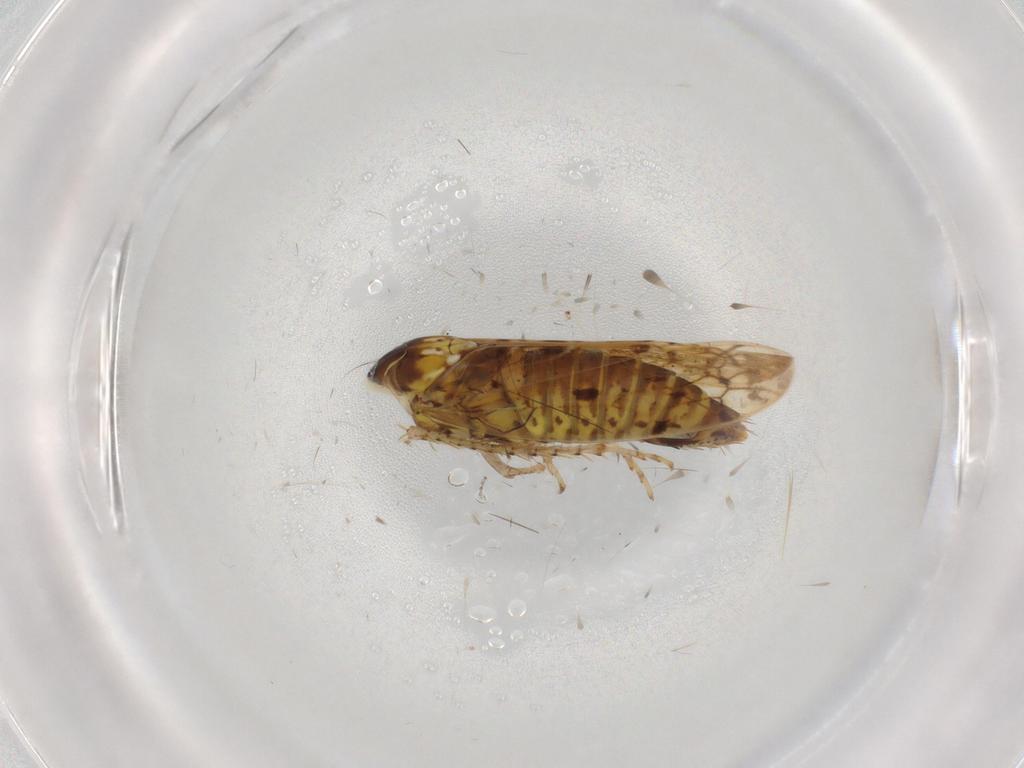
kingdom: Animalia
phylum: Arthropoda
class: Insecta
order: Hemiptera
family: Cicadellidae
